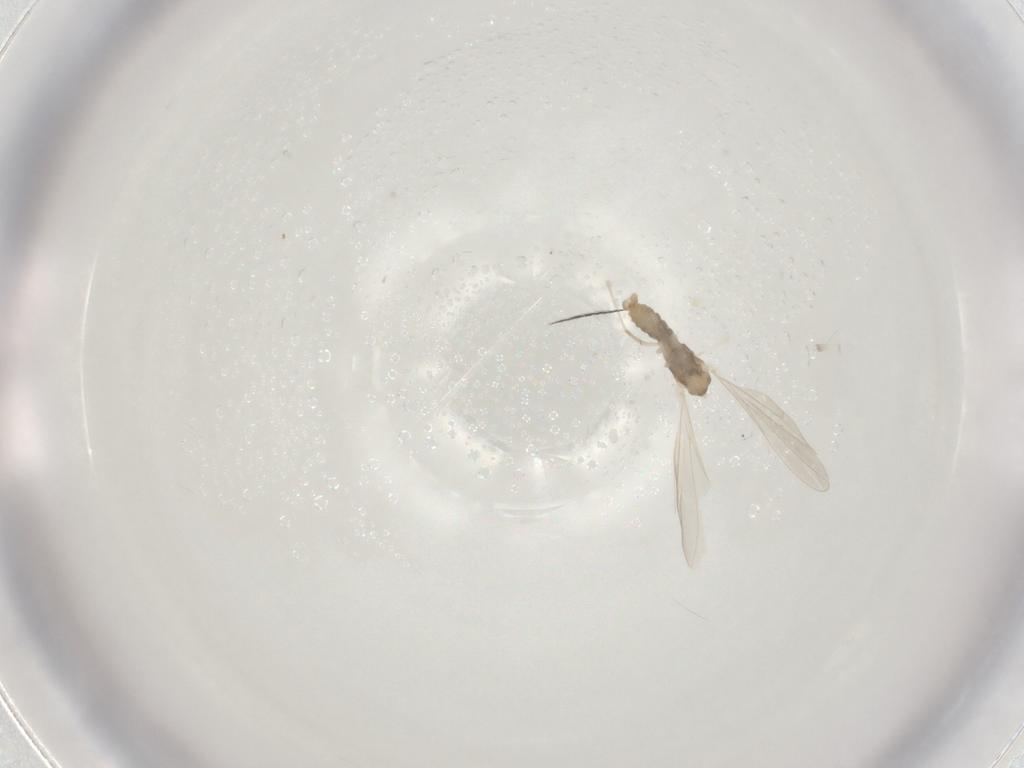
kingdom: Animalia
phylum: Arthropoda
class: Insecta
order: Diptera
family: Cecidomyiidae
